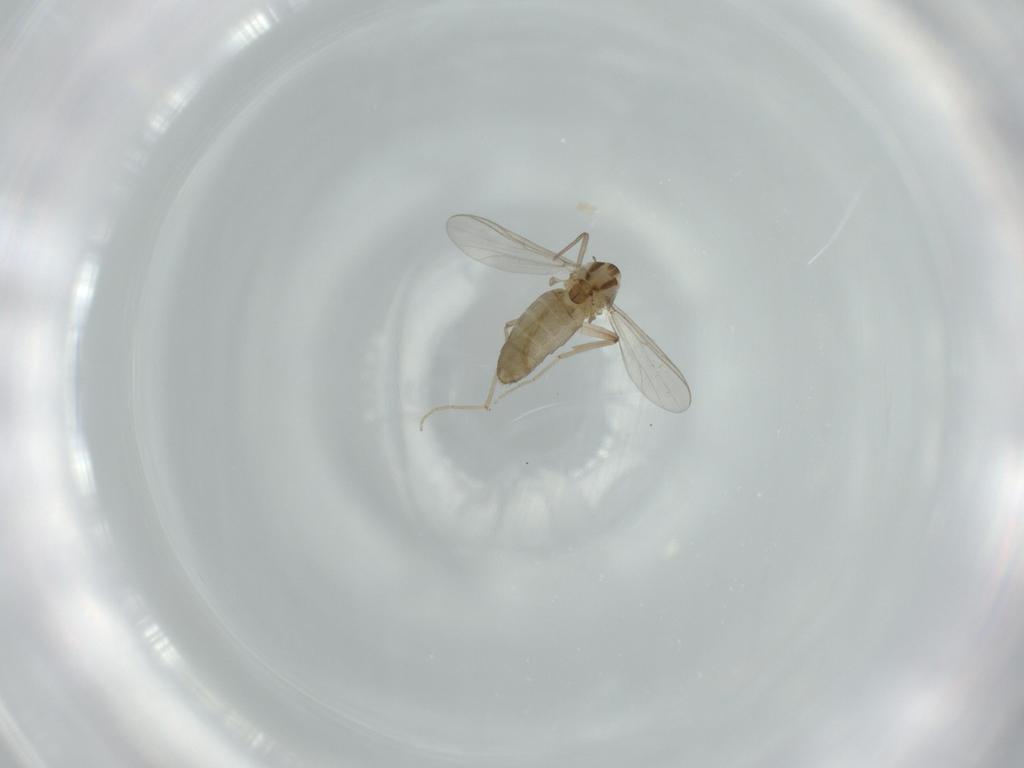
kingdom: Animalia
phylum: Arthropoda
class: Insecta
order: Diptera
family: Chironomidae
